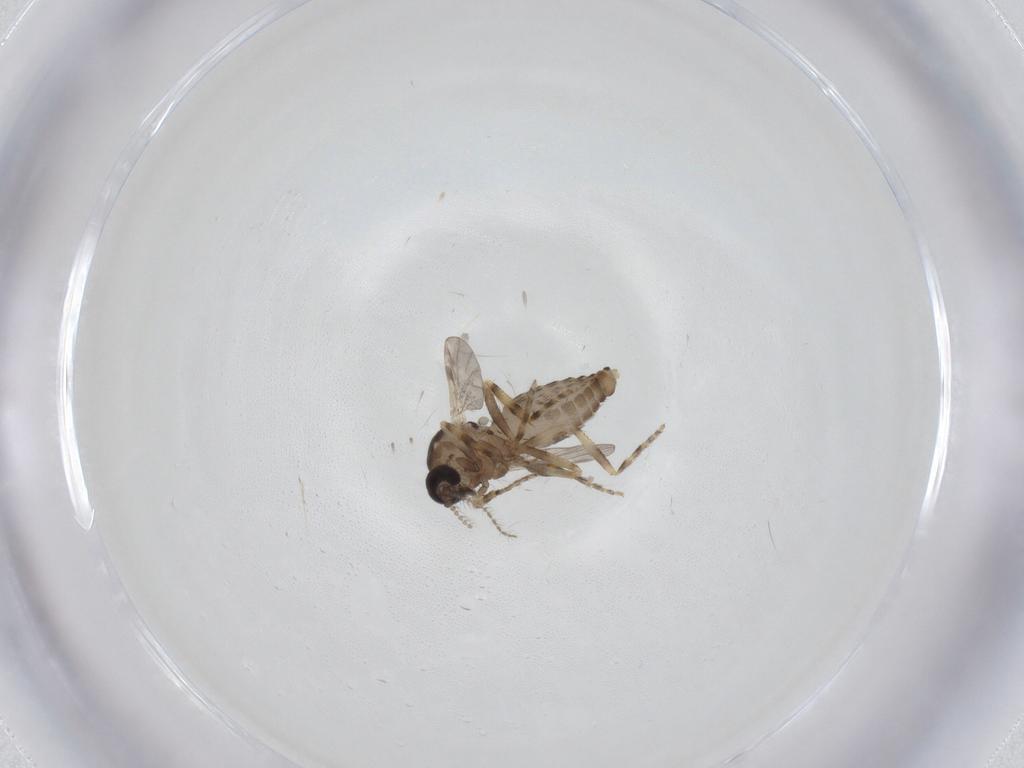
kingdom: Animalia
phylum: Arthropoda
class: Insecta
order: Diptera
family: Ceratopogonidae
